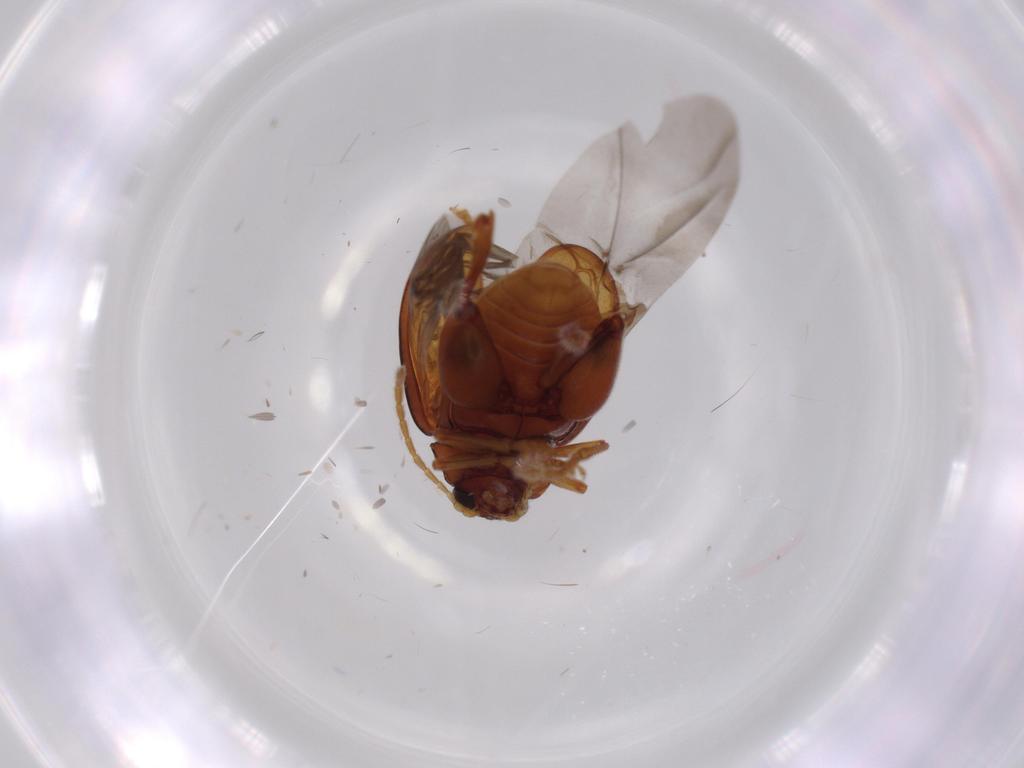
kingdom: Animalia
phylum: Arthropoda
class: Insecta
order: Coleoptera
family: Chrysomelidae
